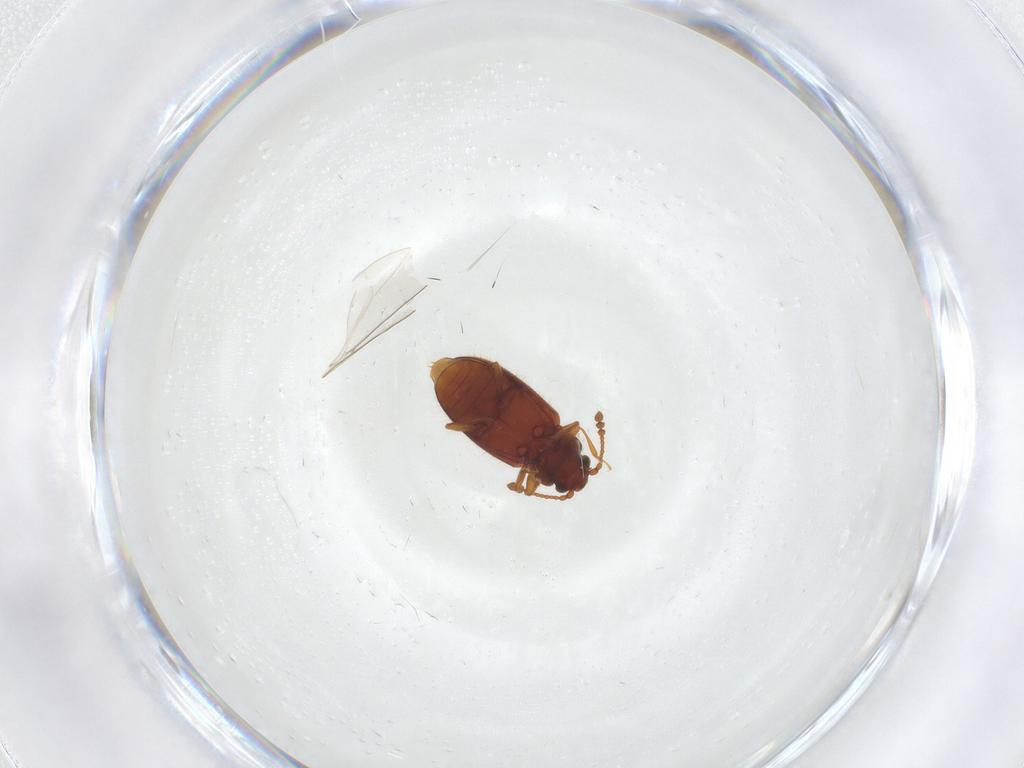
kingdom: Animalia
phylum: Arthropoda
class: Insecta
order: Coleoptera
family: Cryptophagidae
